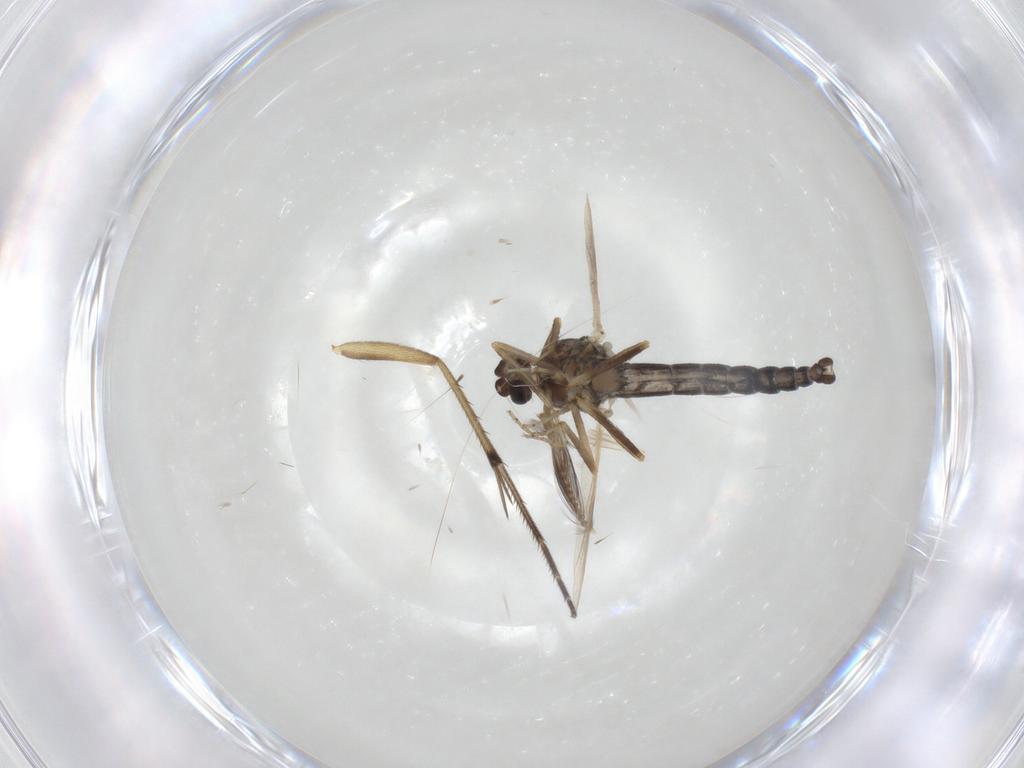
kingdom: Animalia
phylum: Arthropoda
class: Insecta
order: Diptera
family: Ceratopogonidae
